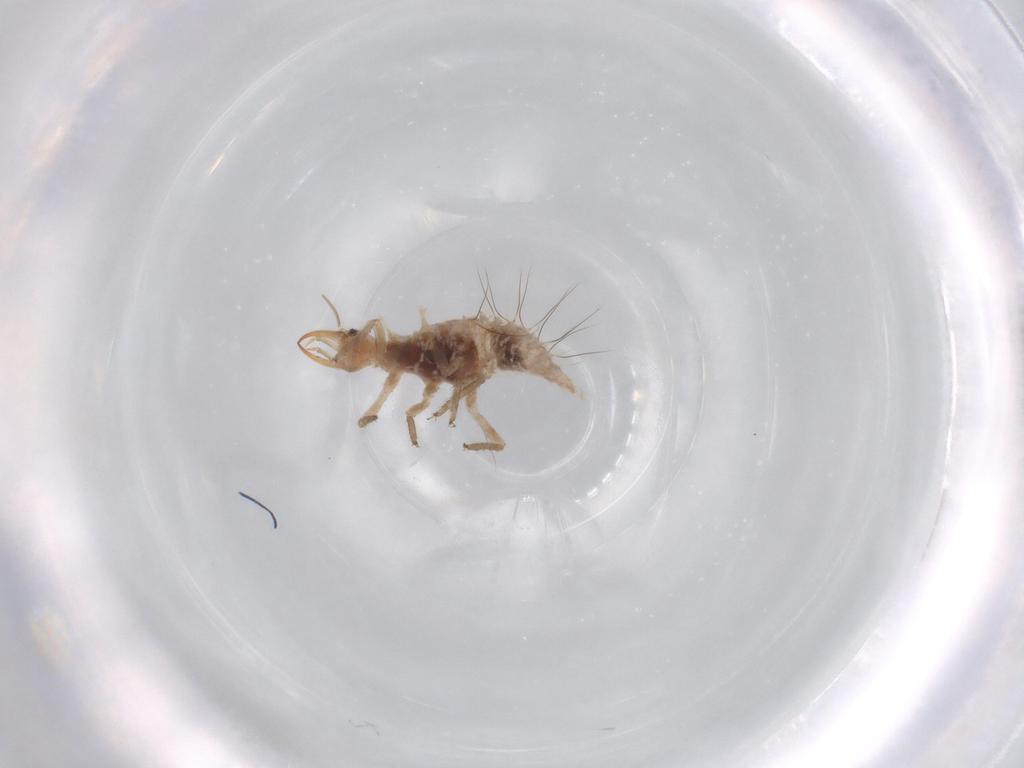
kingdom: Animalia
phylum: Arthropoda
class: Insecta
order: Neuroptera
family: Chrysopidae
